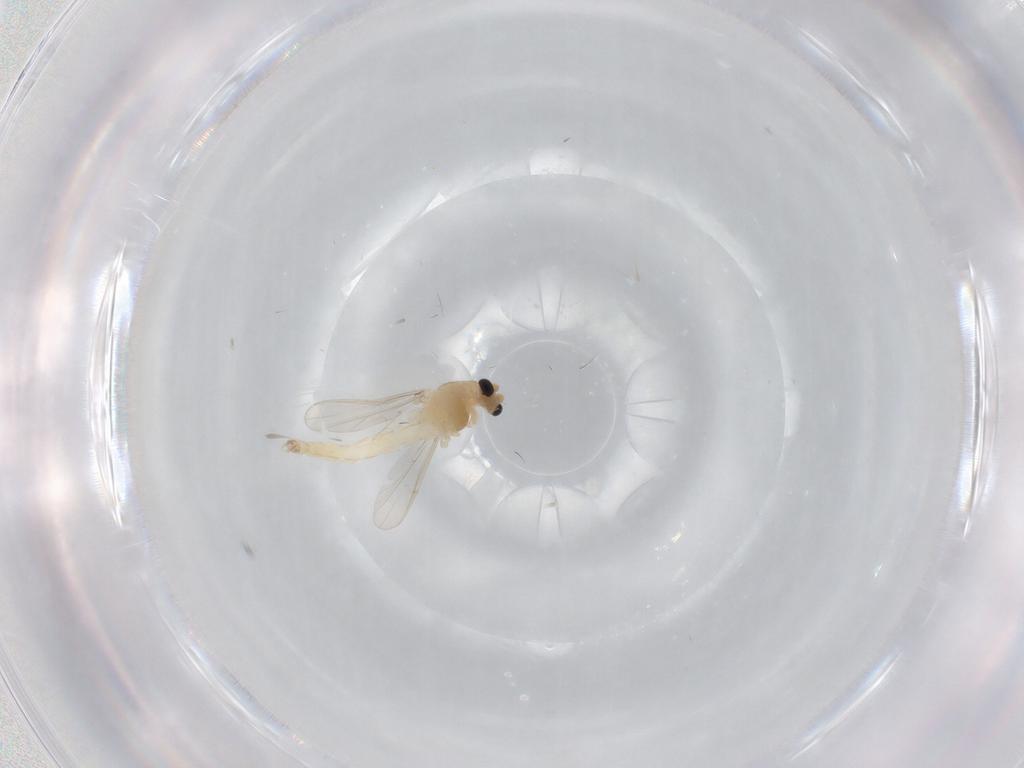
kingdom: Animalia
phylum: Arthropoda
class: Insecta
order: Diptera
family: Chironomidae
